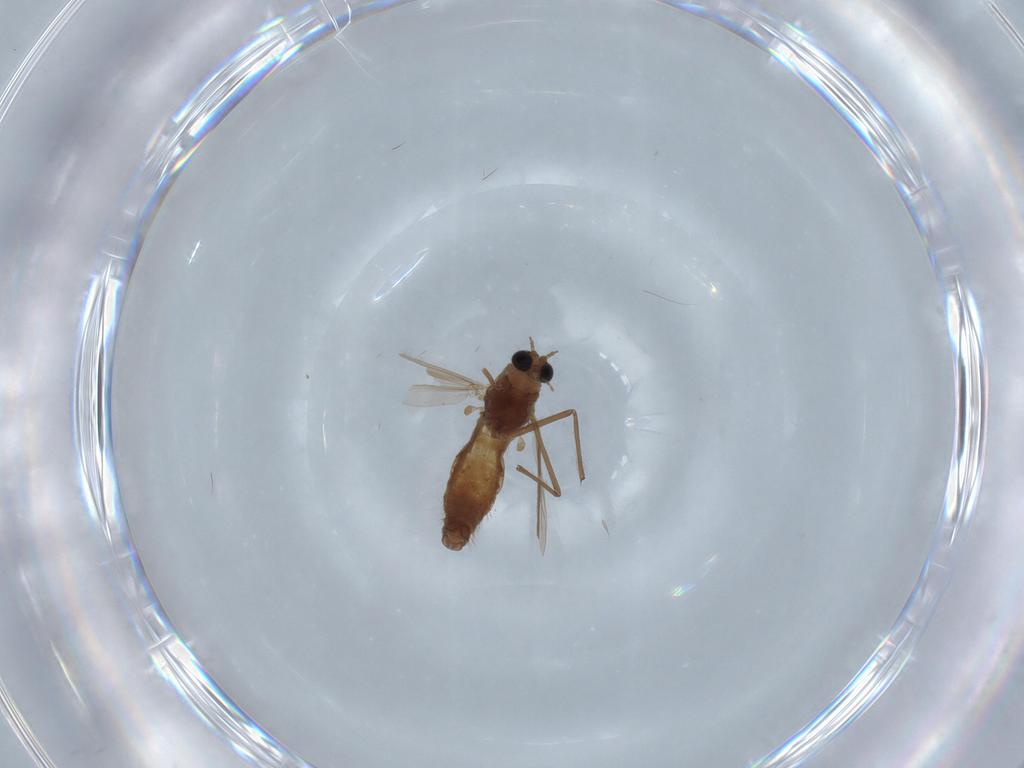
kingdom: Animalia
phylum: Arthropoda
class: Insecta
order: Diptera
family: Chironomidae
